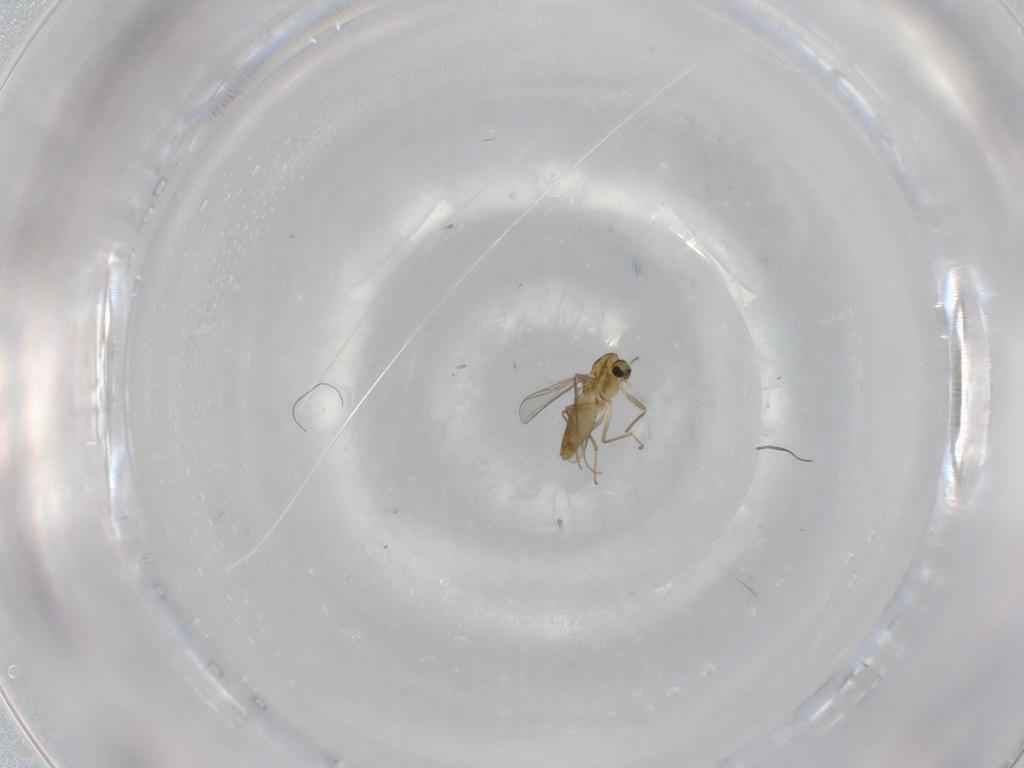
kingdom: Animalia
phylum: Arthropoda
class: Insecta
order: Diptera
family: Chironomidae
